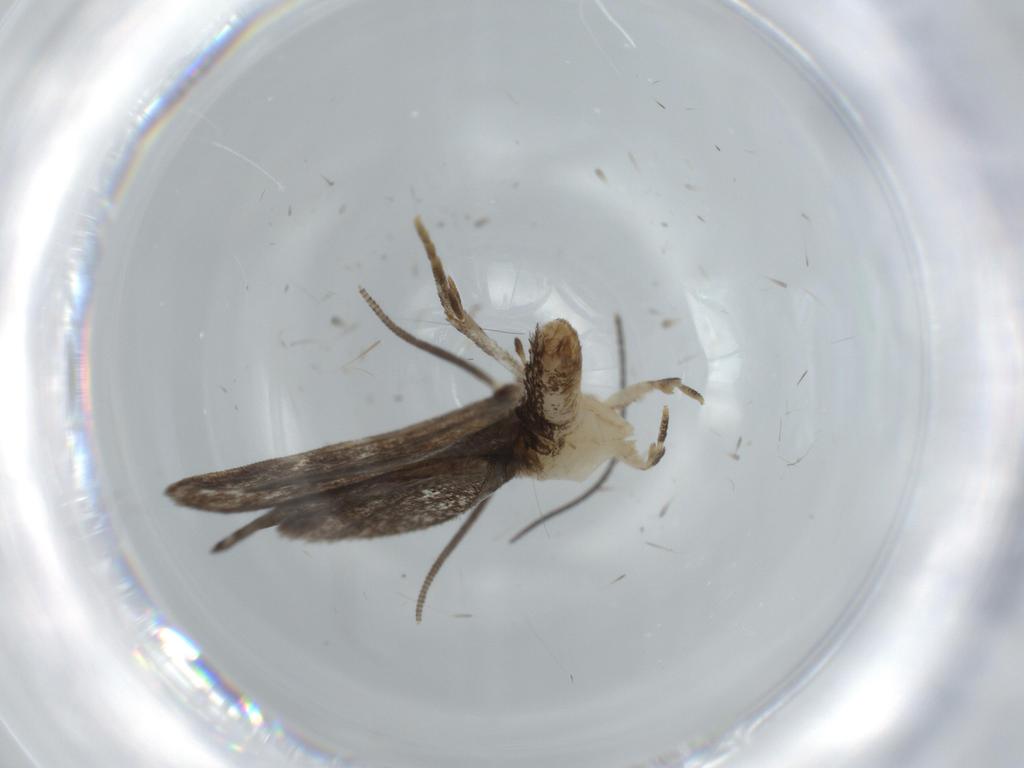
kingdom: Animalia
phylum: Arthropoda
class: Insecta
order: Lepidoptera
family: Dryadaulidae
